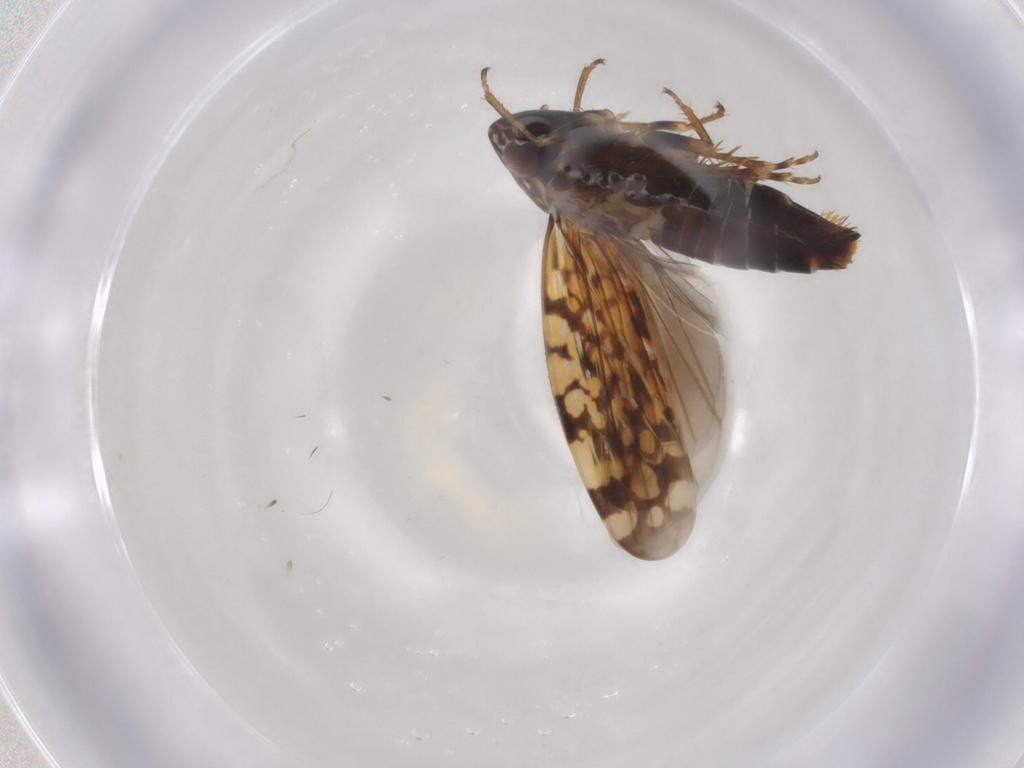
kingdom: Animalia
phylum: Arthropoda
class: Insecta
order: Hemiptera
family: Cicadellidae
